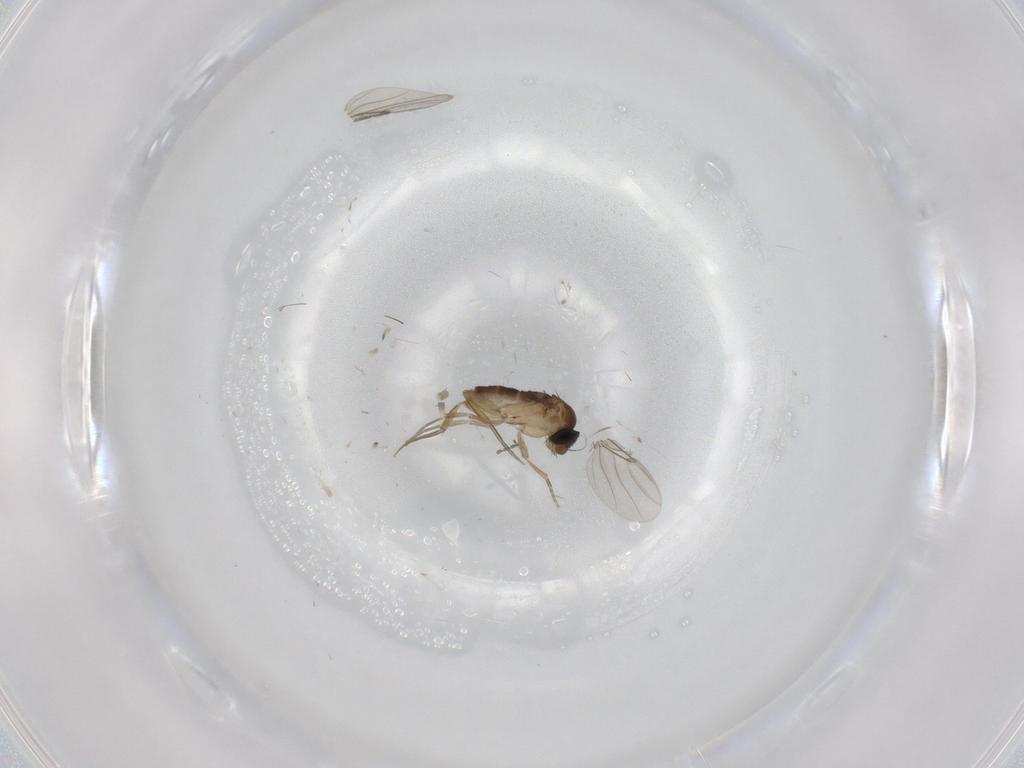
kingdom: Animalia
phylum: Arthropoda
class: Insecta
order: Diptera
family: Phoridae
